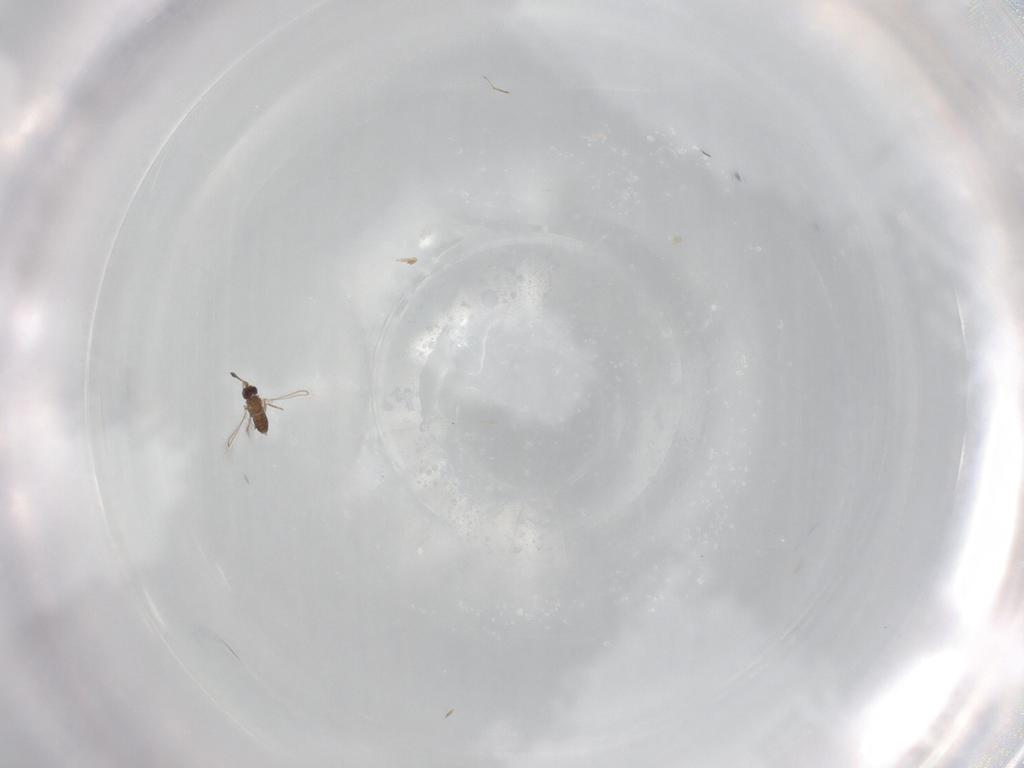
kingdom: Animalia
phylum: Arthropoda
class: Insecta
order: Hymenoptera
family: Mymaridae
